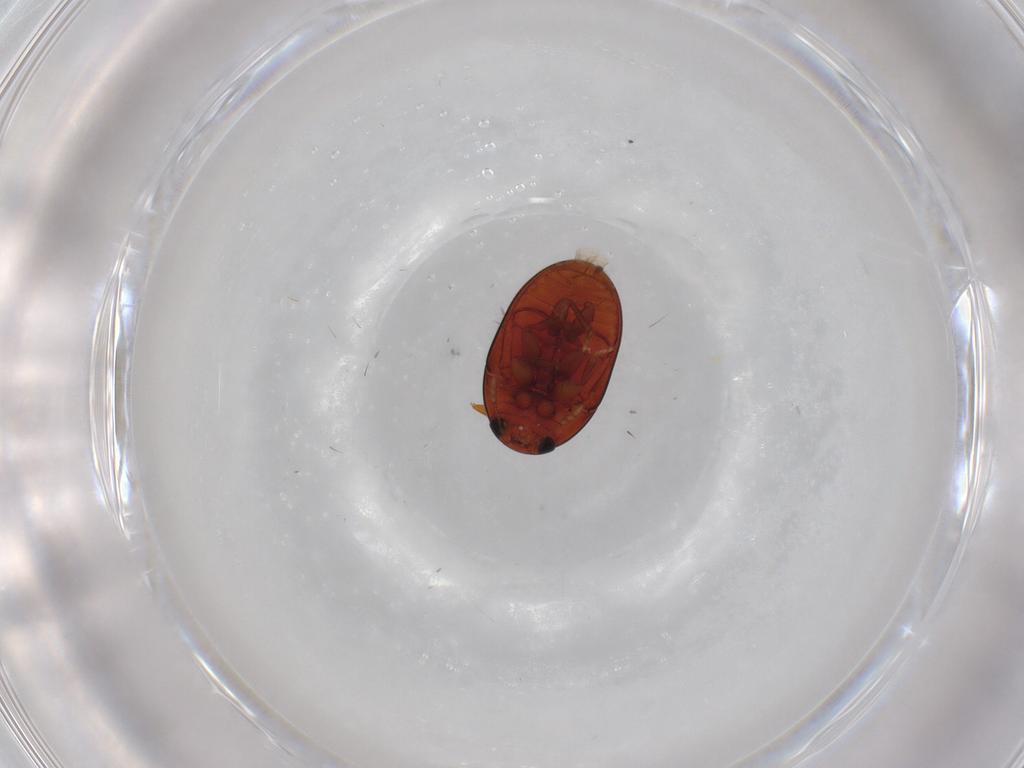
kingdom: Animalia
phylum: Arthropoda
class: Insecta
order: Coleoptera
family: Phalacridae
